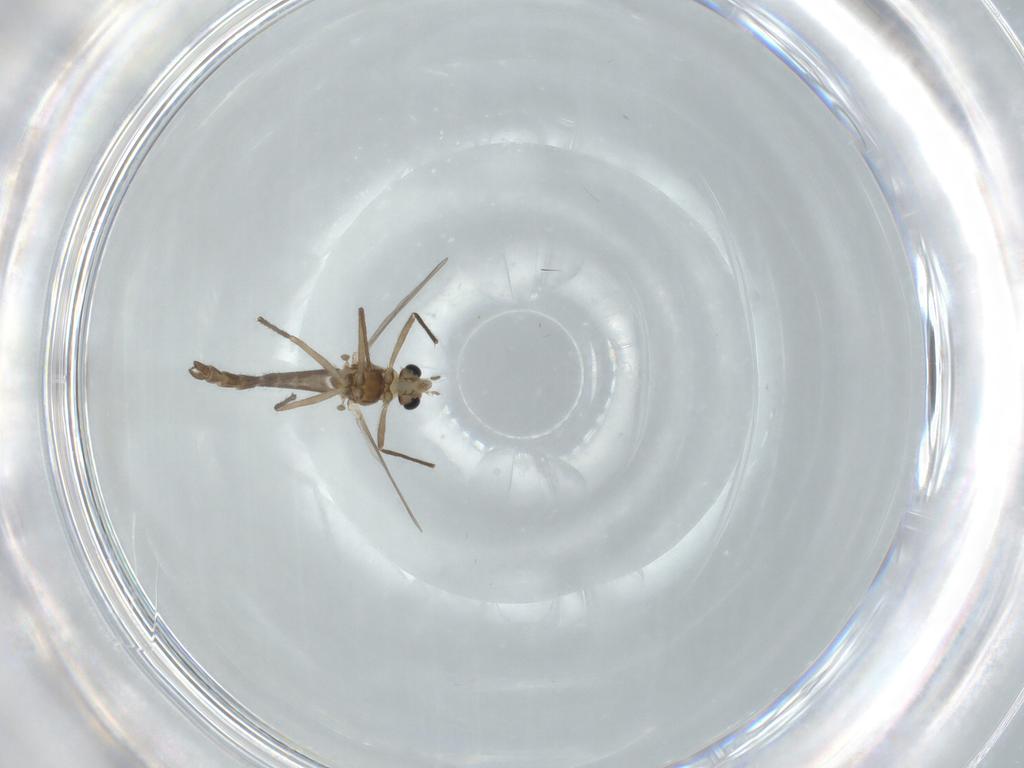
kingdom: Animalia
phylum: Arthropoda
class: Insecta
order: Diptera
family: Chironomidae
